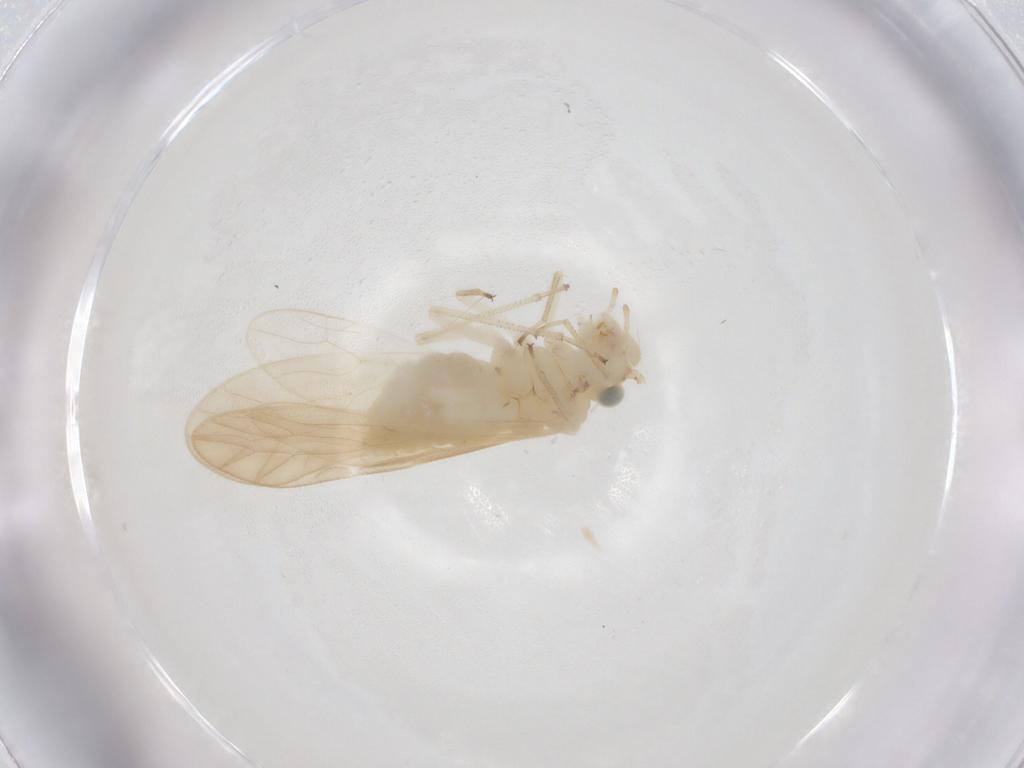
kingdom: Animalia
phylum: Arthropoda
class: Insecta
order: Psocodea
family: Caeciliusidae
